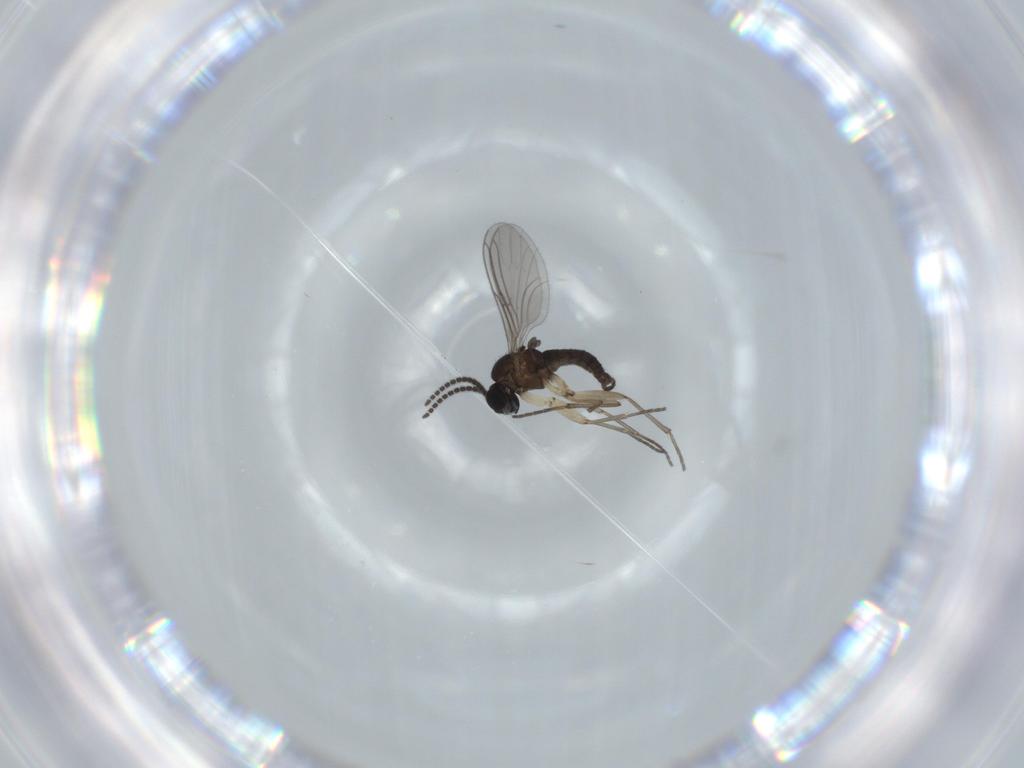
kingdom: Animalia
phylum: Arthropoda
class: Insecta
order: Diptera
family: Sciaridae
